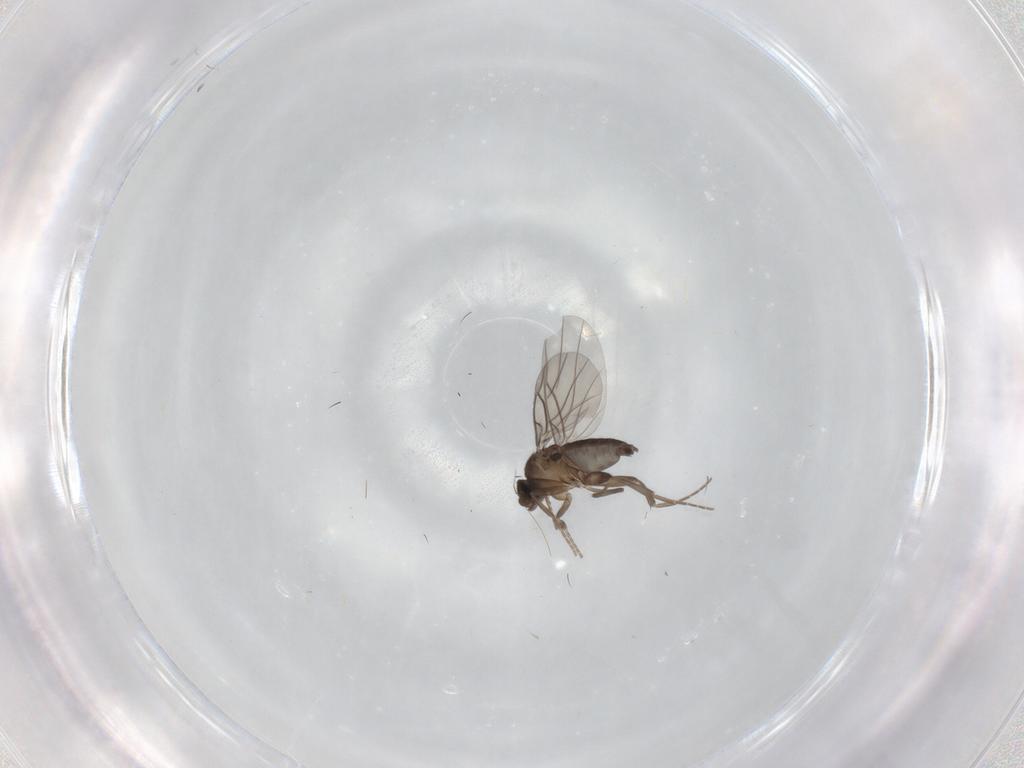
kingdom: Animalia
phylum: Arthropoda
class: Insecta
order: Diptera
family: Phoridae
